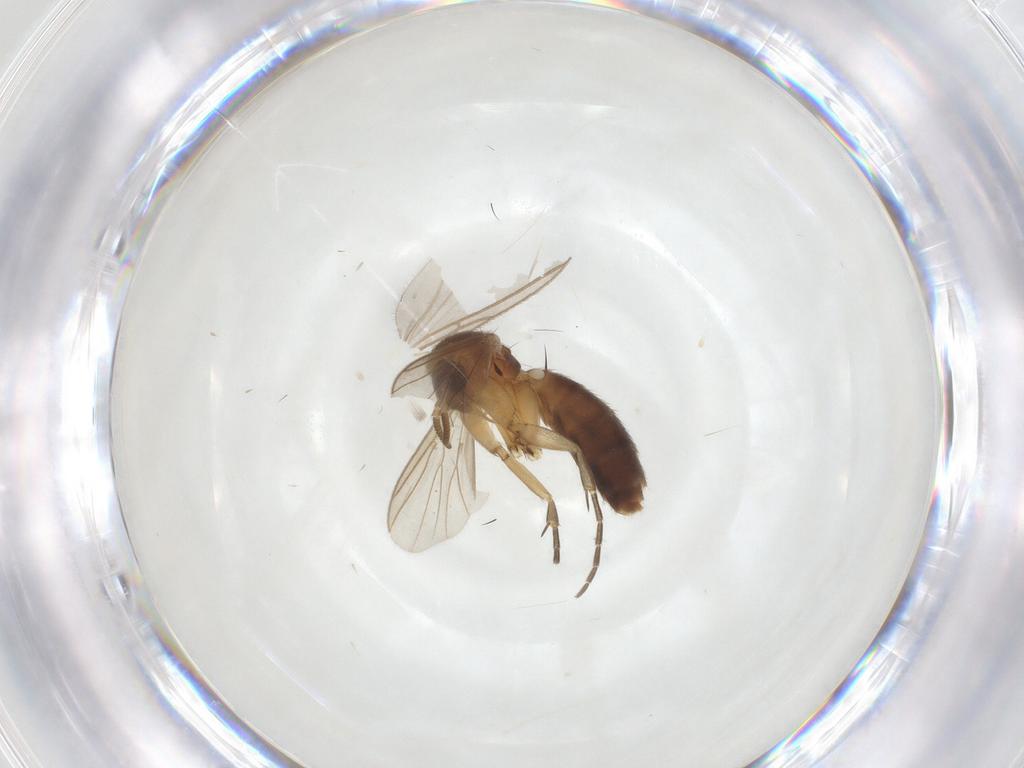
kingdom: Animalia
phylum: Arthropoda
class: Insecta
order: Diptera
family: Mycetophilidae
